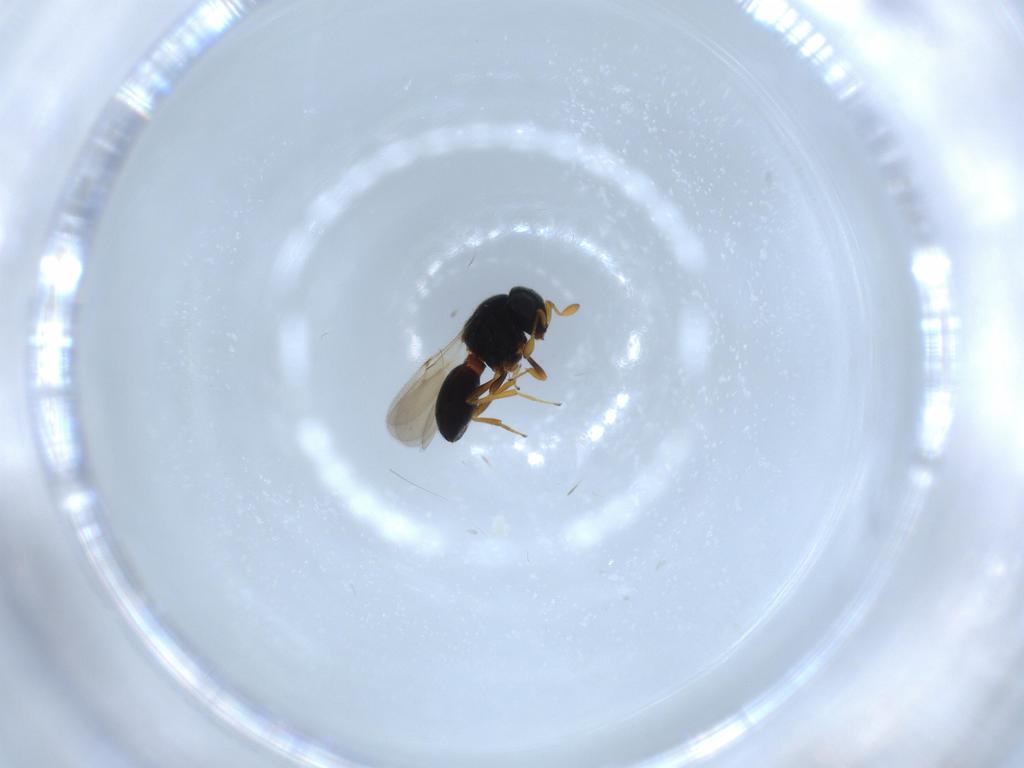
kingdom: Animalia
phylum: Arthropoda
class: Insecta
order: Hymenoptera
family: Scelionidae
